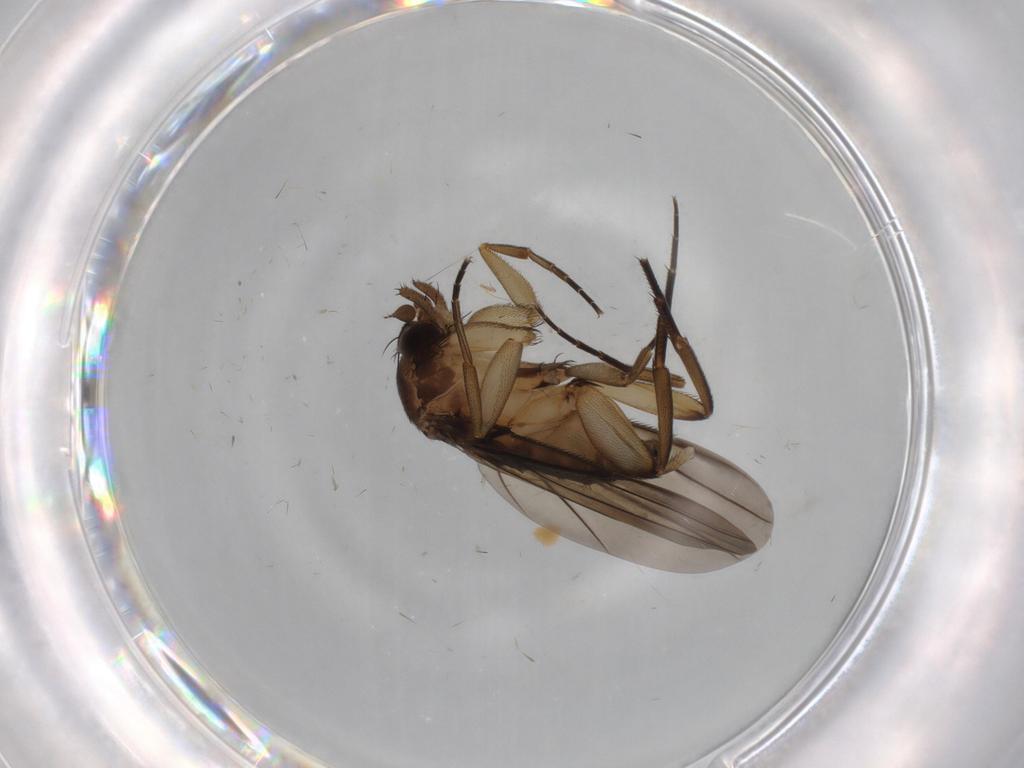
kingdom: Animalia
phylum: Arthropoda
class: Insecta
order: Diptera
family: Phoridae
